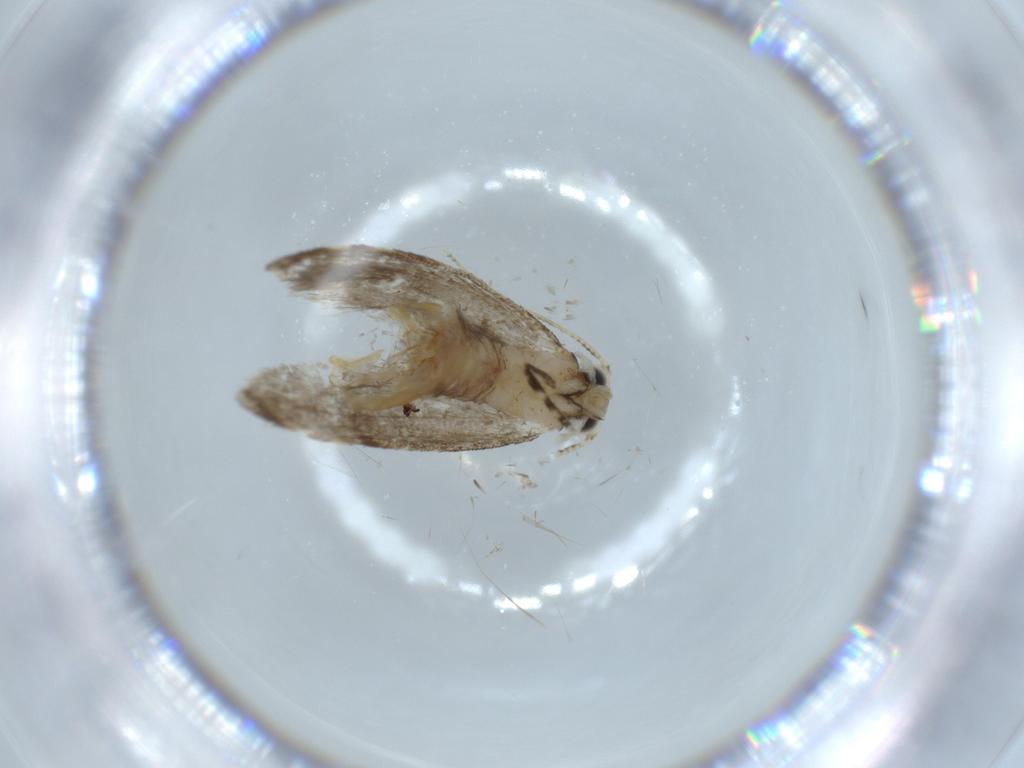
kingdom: Animalia
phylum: Arthropoda
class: Insecta
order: Lepidoptera
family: Tineidae
